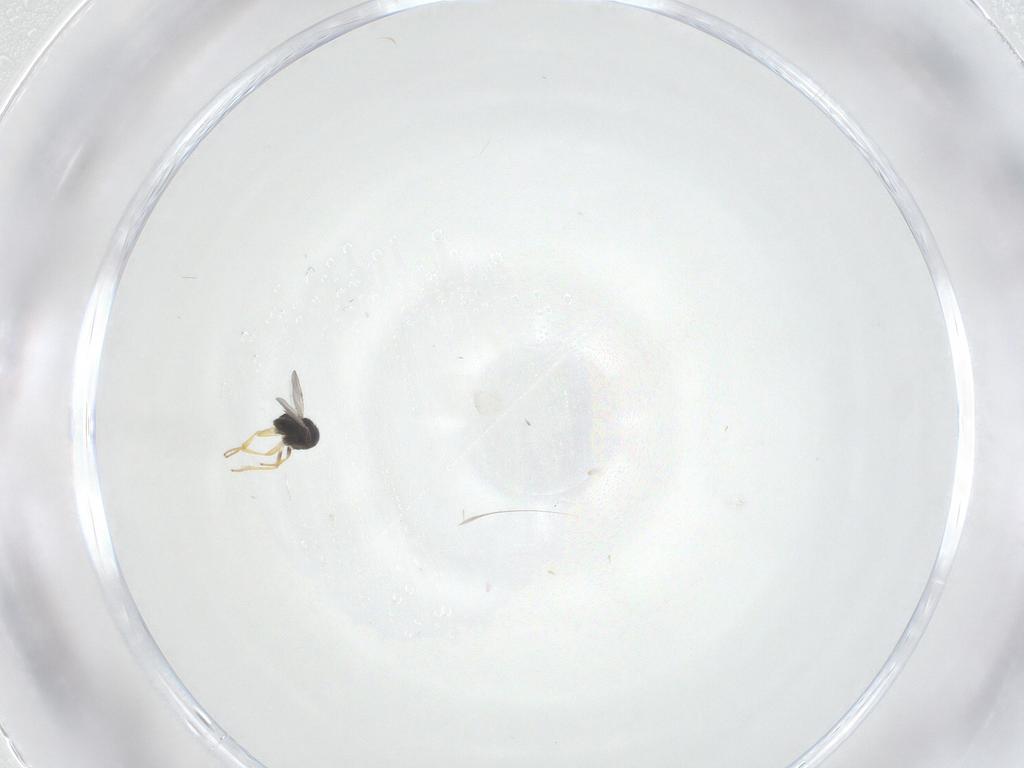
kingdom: Animalia
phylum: Arthropoda
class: Insecta
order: Hymenoptera
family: Encyrtidae
